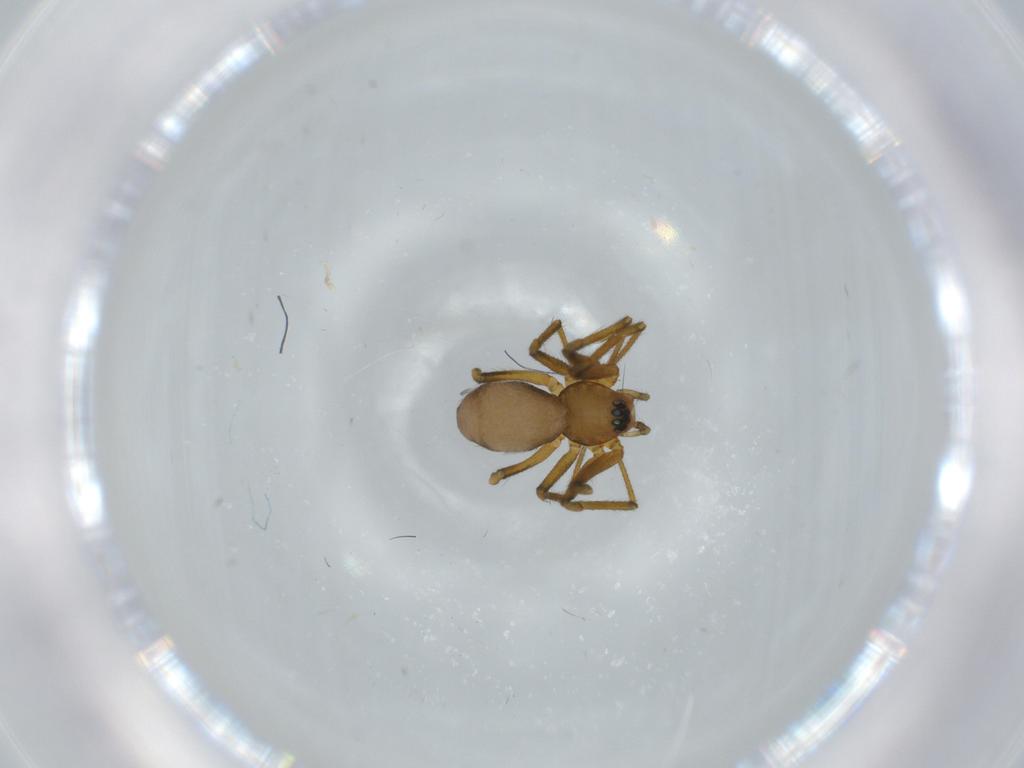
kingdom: Animalia
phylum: Arthropoda
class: Arachnida
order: Araneae
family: Linyphiidae
